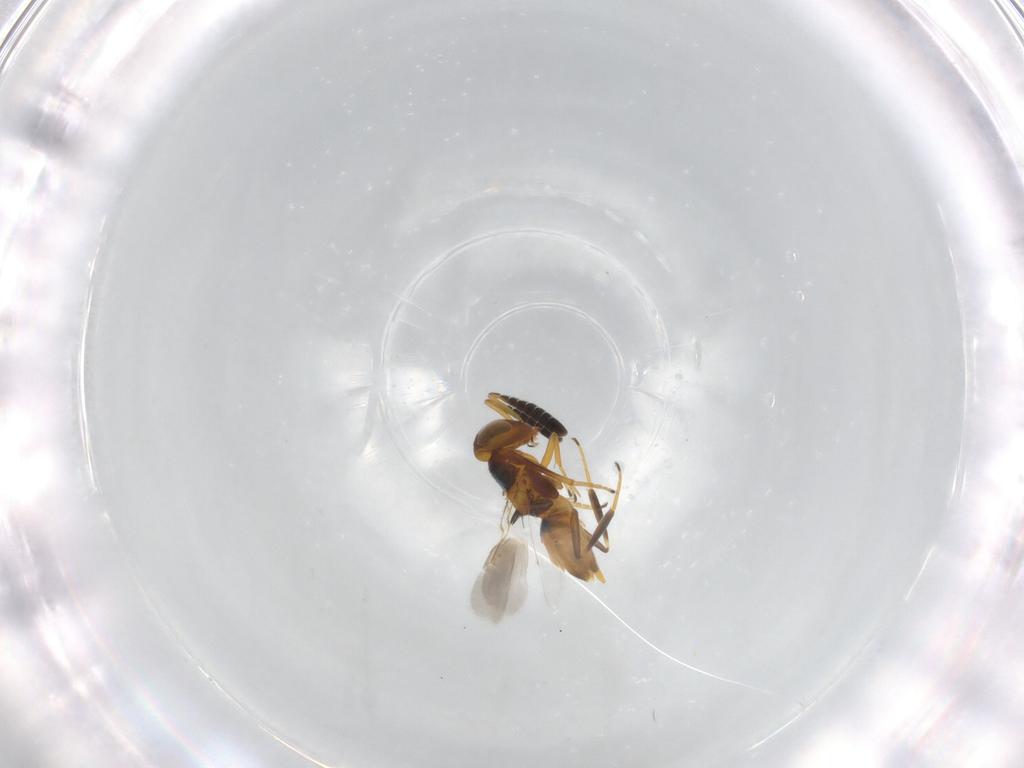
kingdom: Animalia
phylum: Arthropoda
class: Insecta
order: Hymenoptera
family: Encyrtidae
